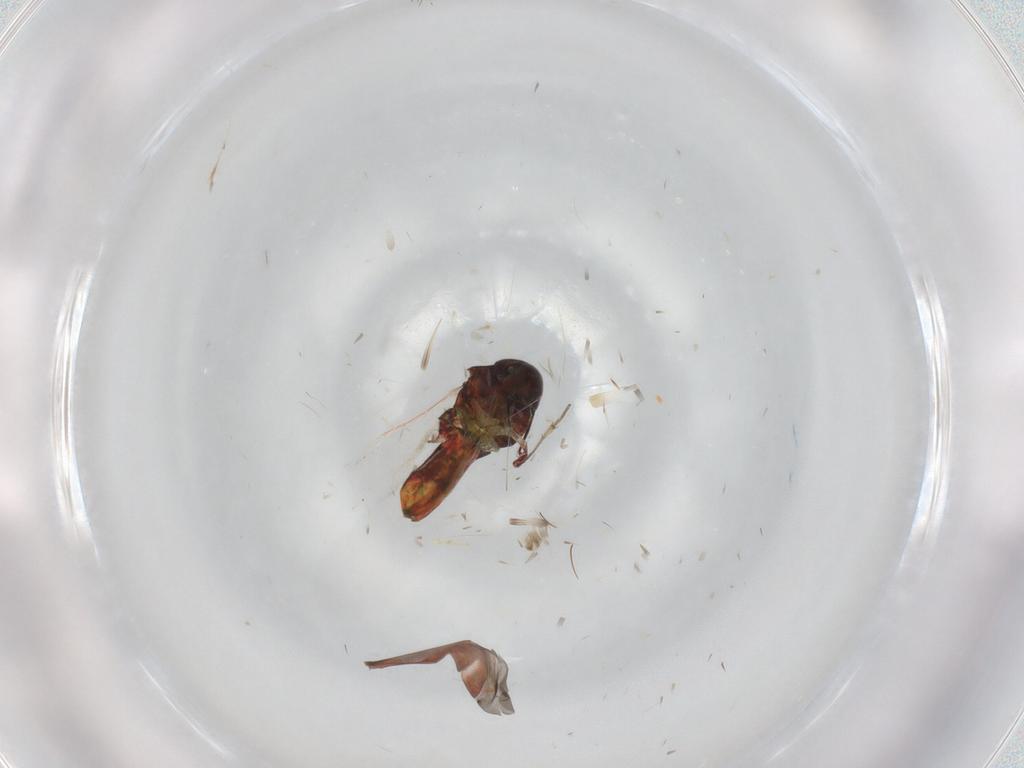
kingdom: Animalia
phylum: Arthropoda
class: Insecta
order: Hemiptera
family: Miridae
